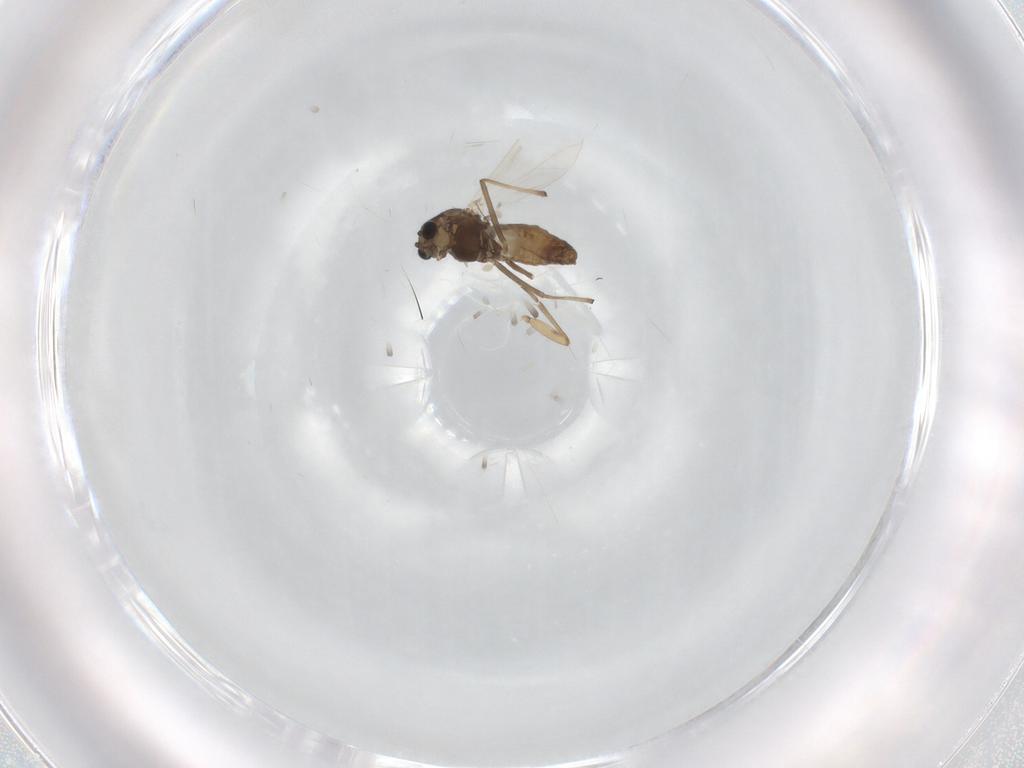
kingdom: Animalia
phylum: Arthropoda
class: Insecta
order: Diptera
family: Chironomidae
